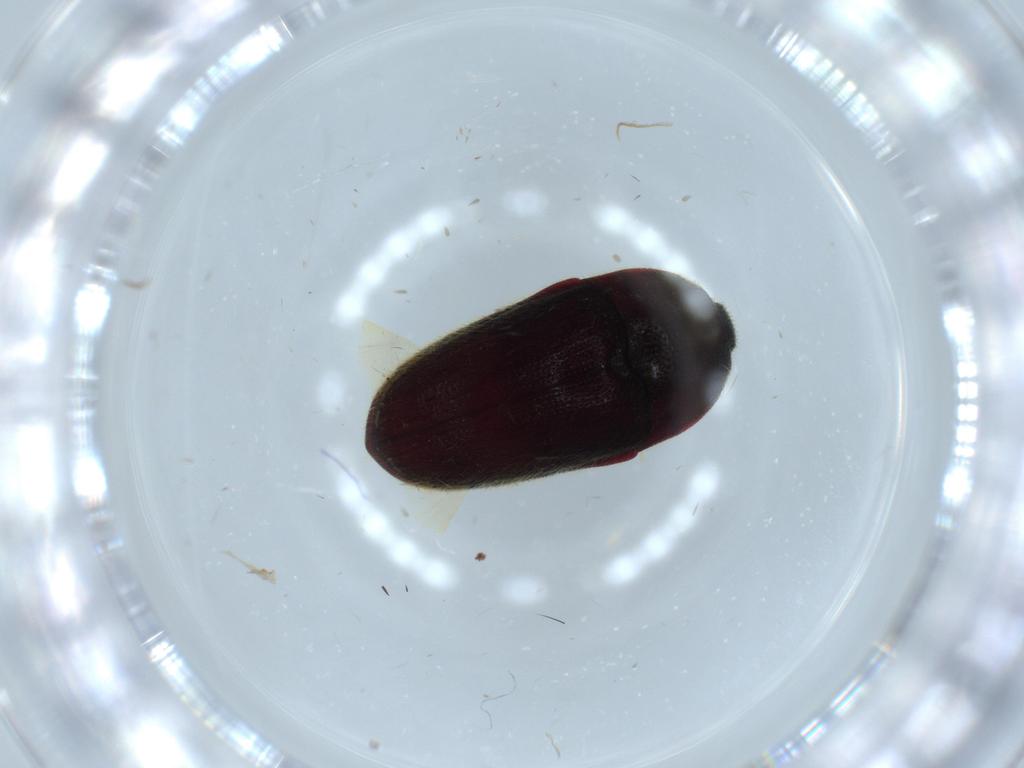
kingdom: Animalia
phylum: Arthropoda
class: Insecta
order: Coleoptera
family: Throscidae
